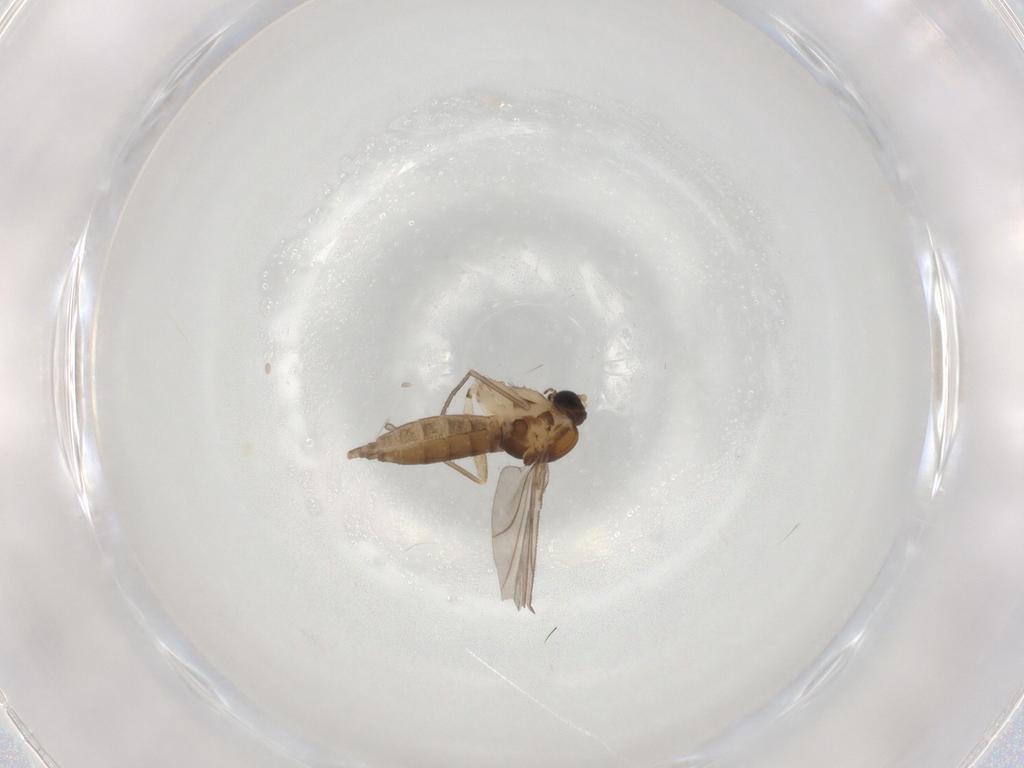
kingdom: Animalia
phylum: Arthropoda
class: Insecta
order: Diptera
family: Sciaridae
